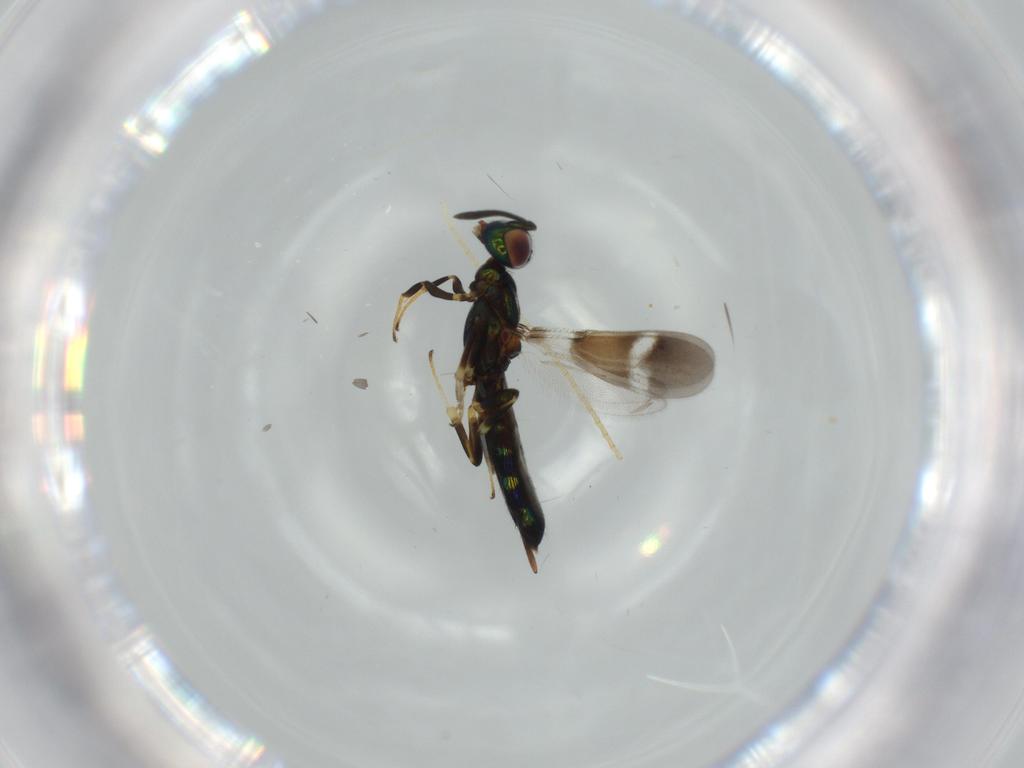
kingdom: Animalia
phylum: Arthropoda
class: Insecta
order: Hymenoptera
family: Eupelmidae
